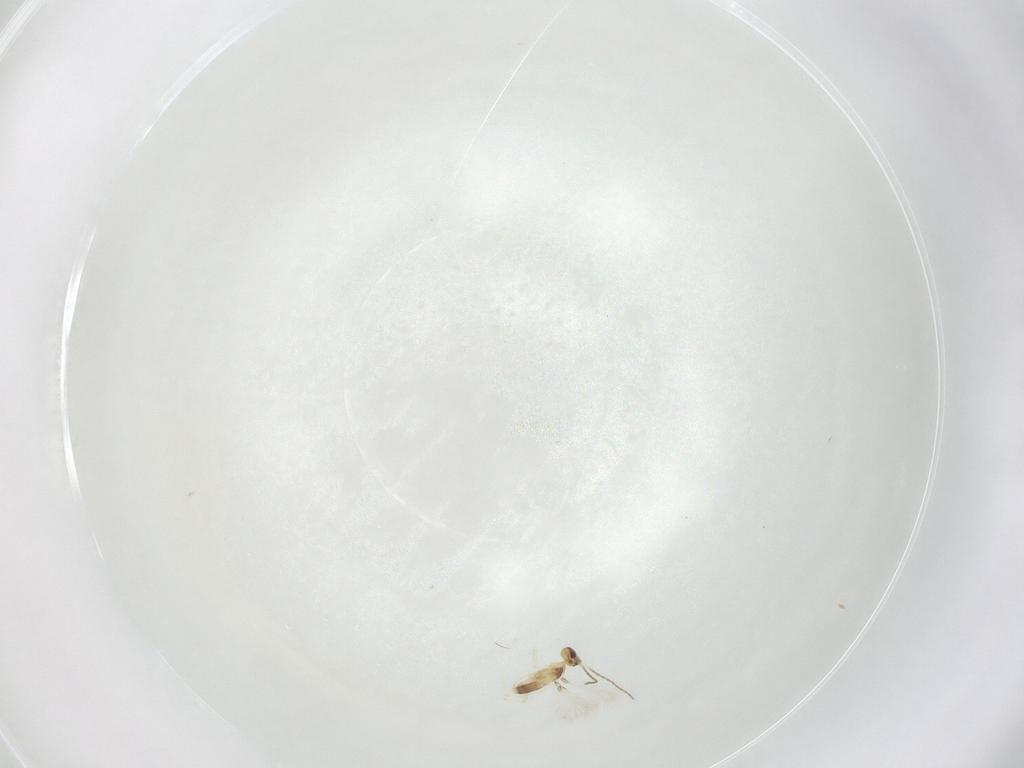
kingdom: Animalia
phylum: Arthropoda
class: Insecta
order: Hymenoptera
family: Mymaridae
